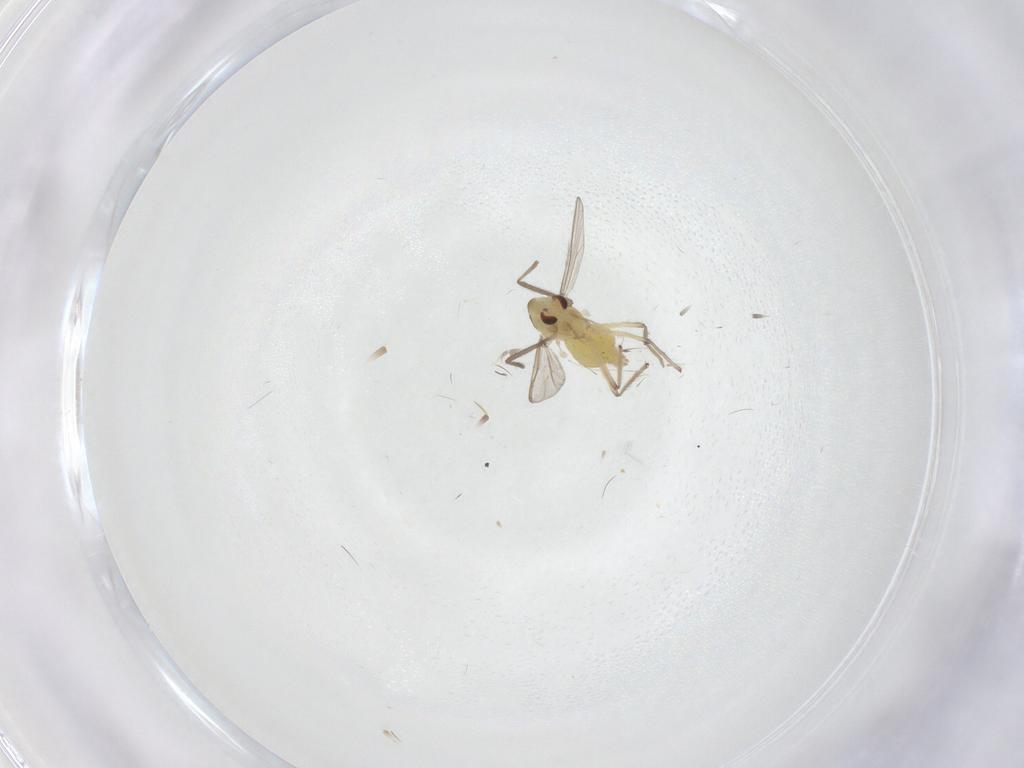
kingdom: Animalia
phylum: Arthropoda
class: Insecta
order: Diptera
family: Chironomidae
